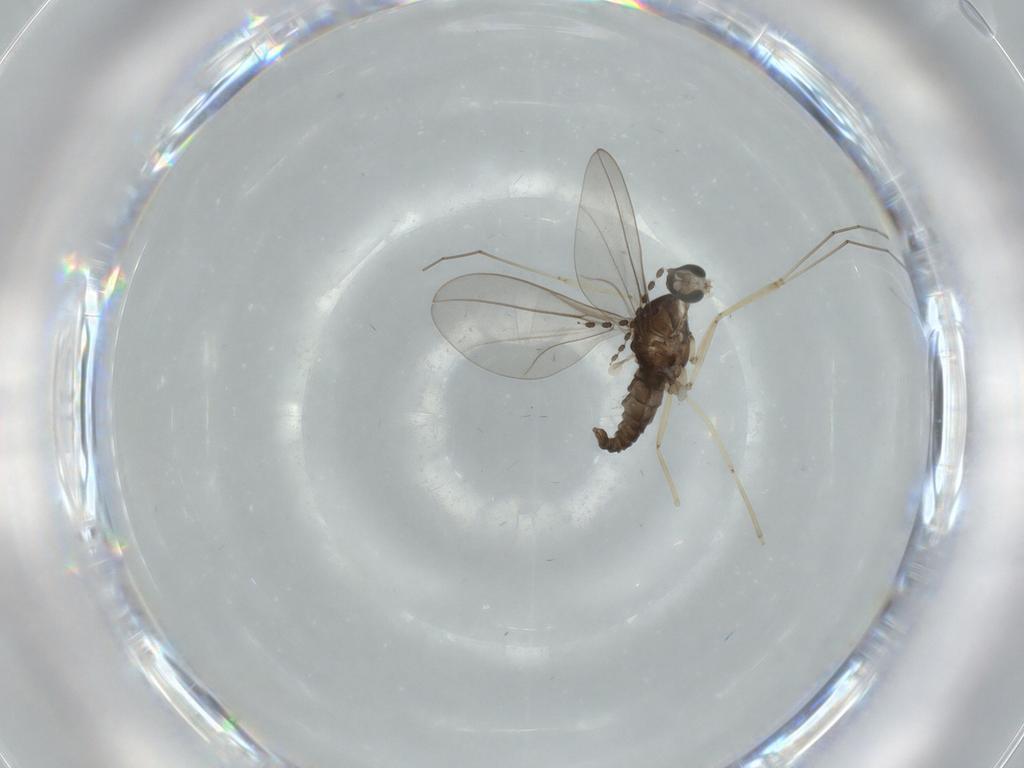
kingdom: Animalia
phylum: Arthropoda
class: Insecta
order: Diptera
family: Cecidomyiidae
